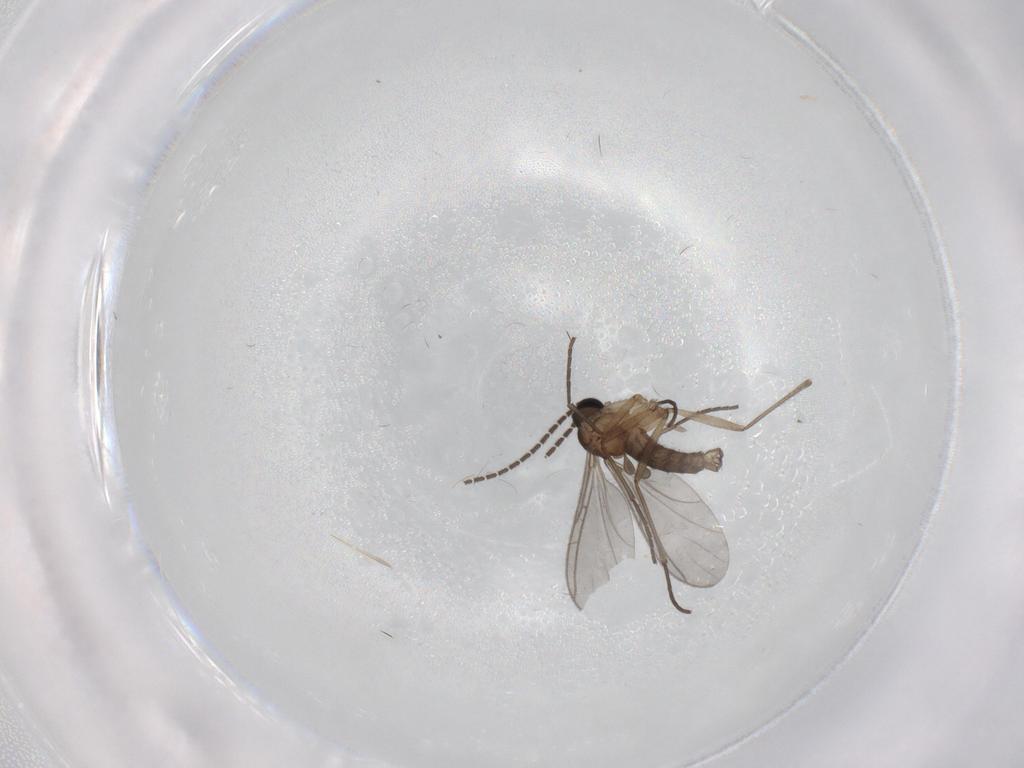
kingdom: Animalia
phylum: Arthropoda
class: Insecta
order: Diptera
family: Sciaridae
